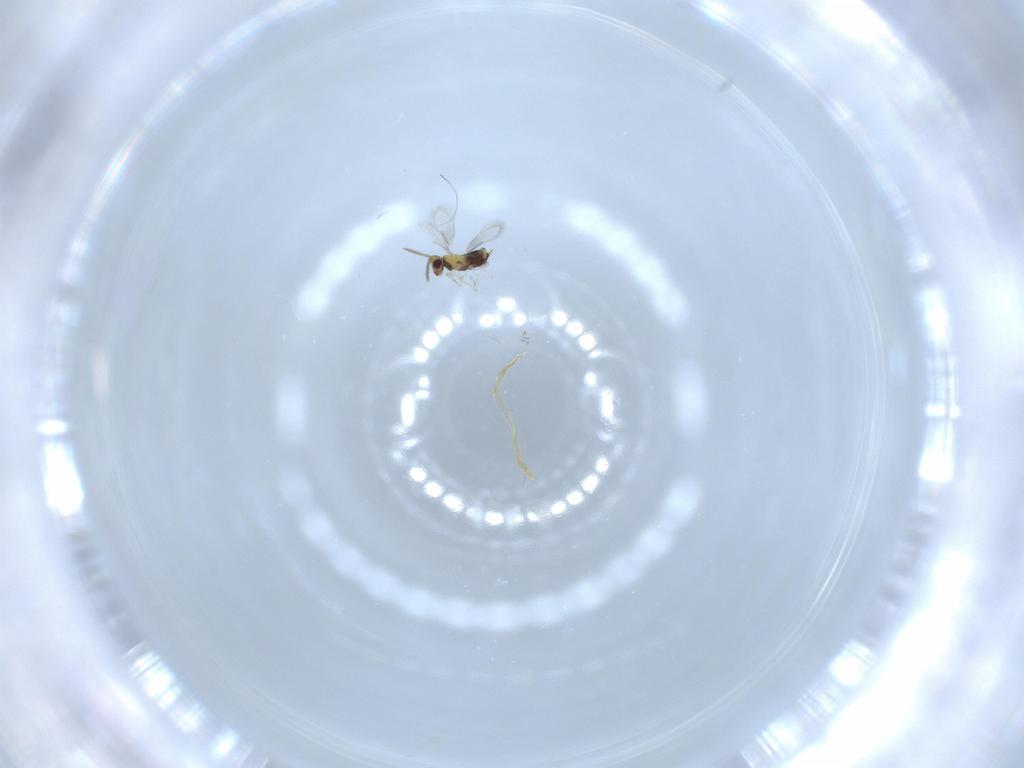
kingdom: Animalia
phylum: Arthropoda
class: Insecta
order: Hymenoptera
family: Aphelinidae
